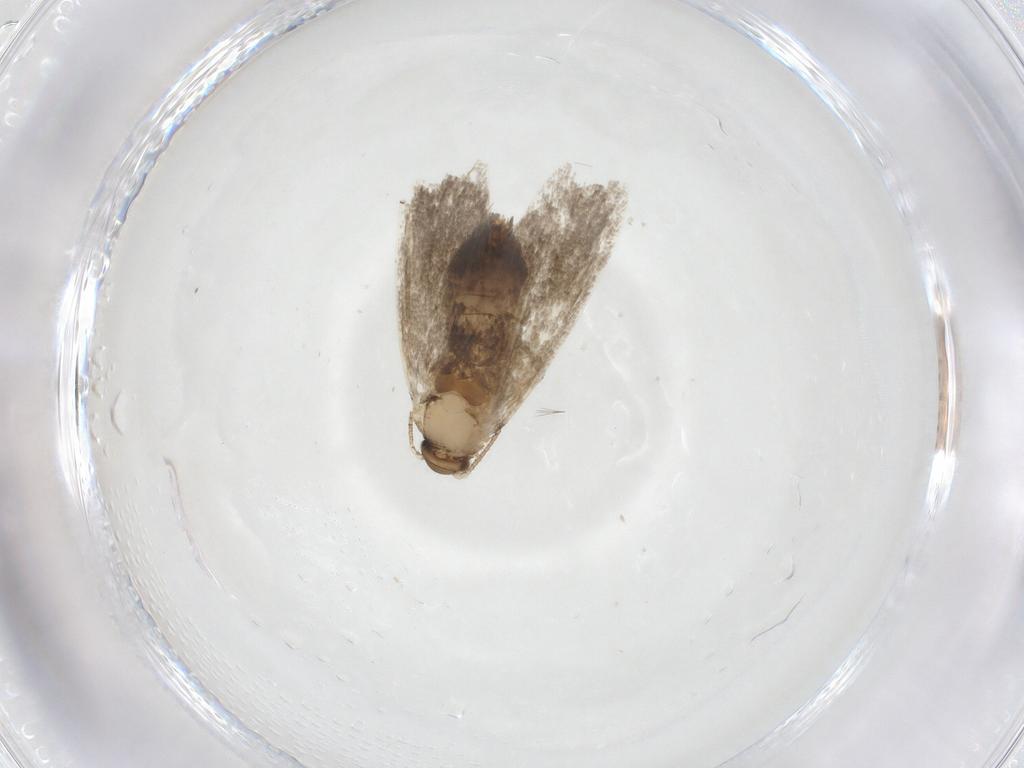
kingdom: Animalia
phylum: Arthropoda
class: Insecta
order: Lepidoptera
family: Tineidae
